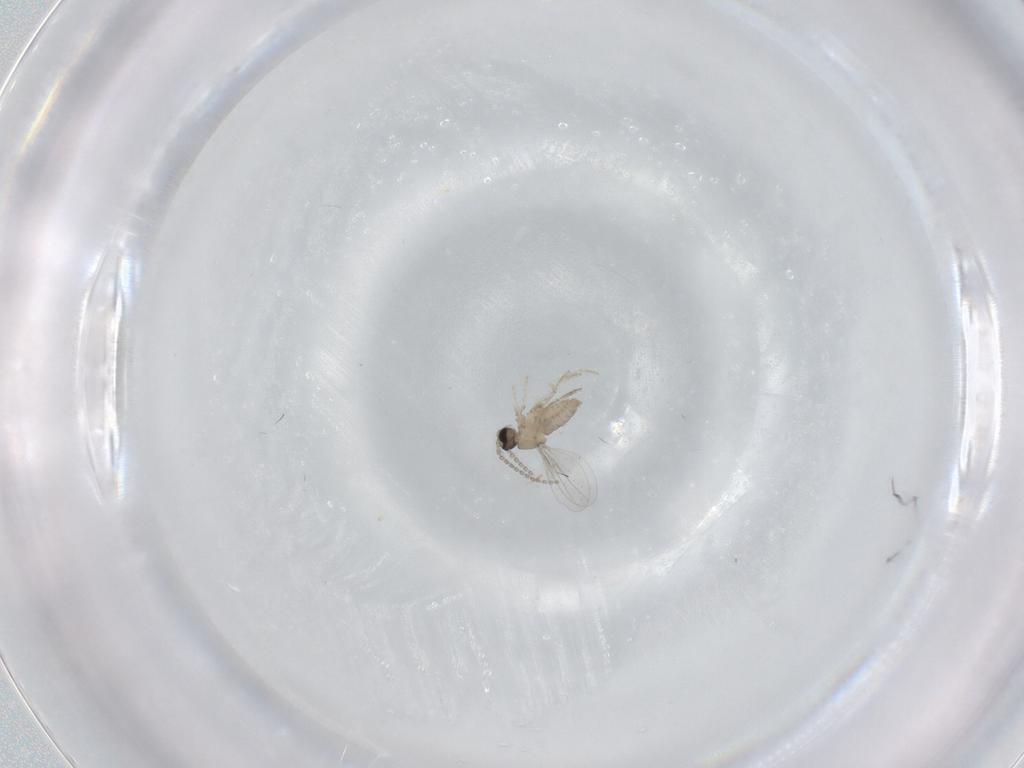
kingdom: Animalia
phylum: Arthropoda
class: Insecta
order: Diptera
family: Cecidomyiidae
